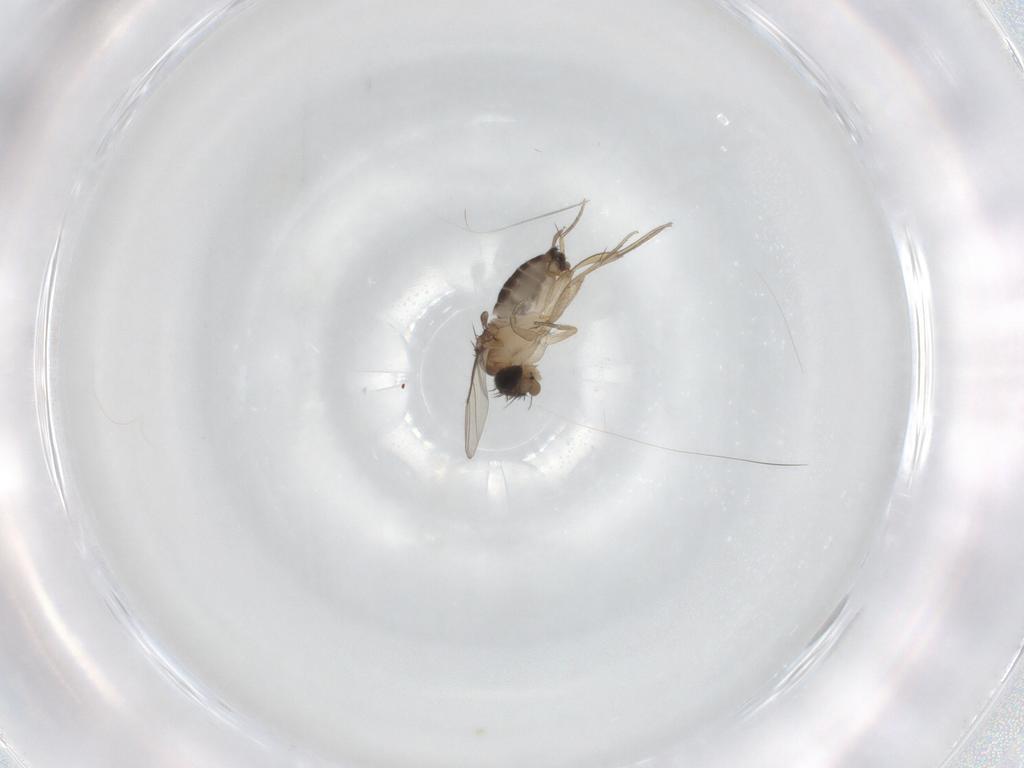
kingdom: Animalia
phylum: Arthropoda
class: Insecta
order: Diptera
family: Phoridae
